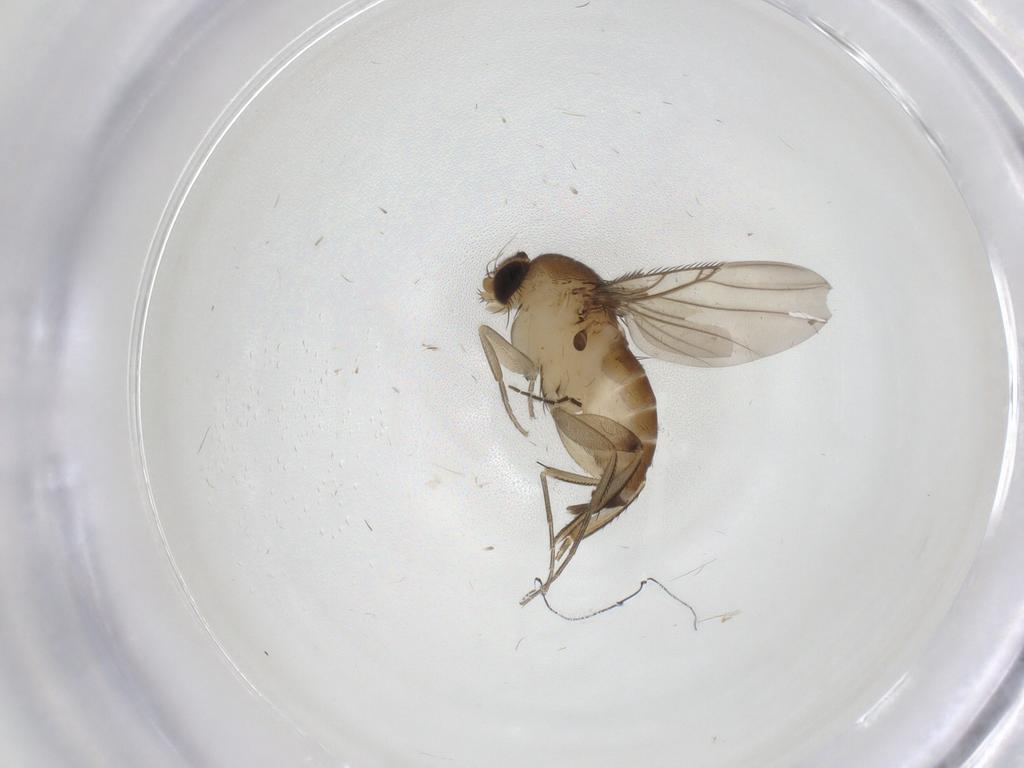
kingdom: Animalia
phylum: Arthropoda
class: Insecta
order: Diptera
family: Phoridae
